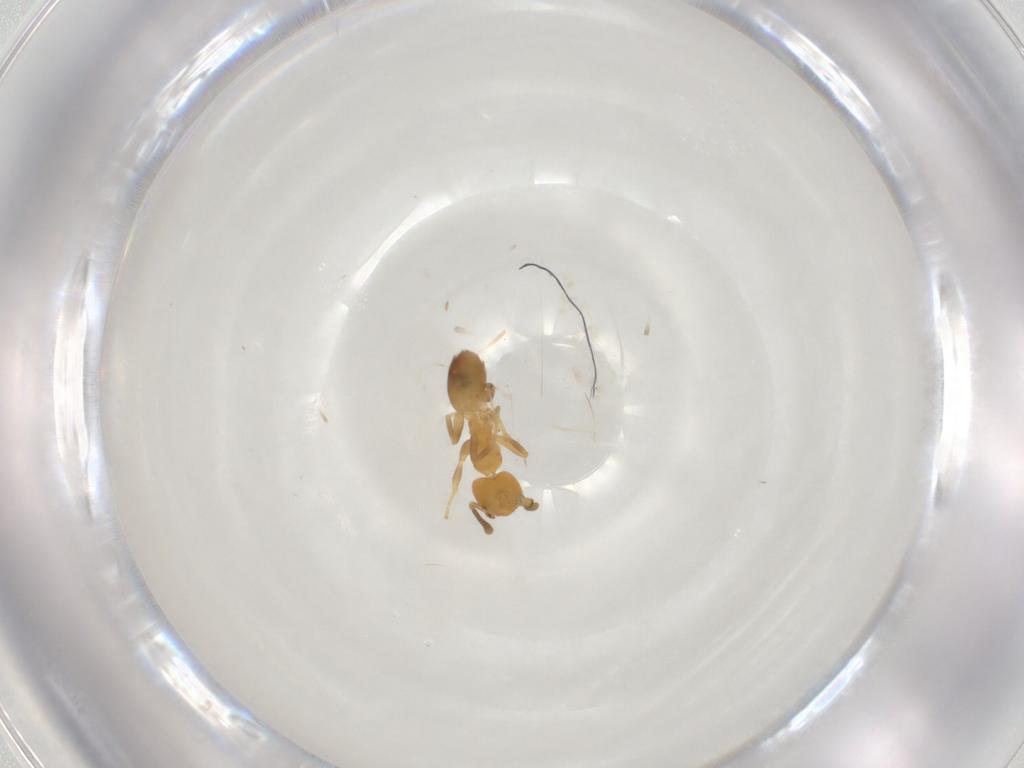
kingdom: Animalia
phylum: Arthropoda
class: Insecta
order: Hymenoptera
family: Formicidae
